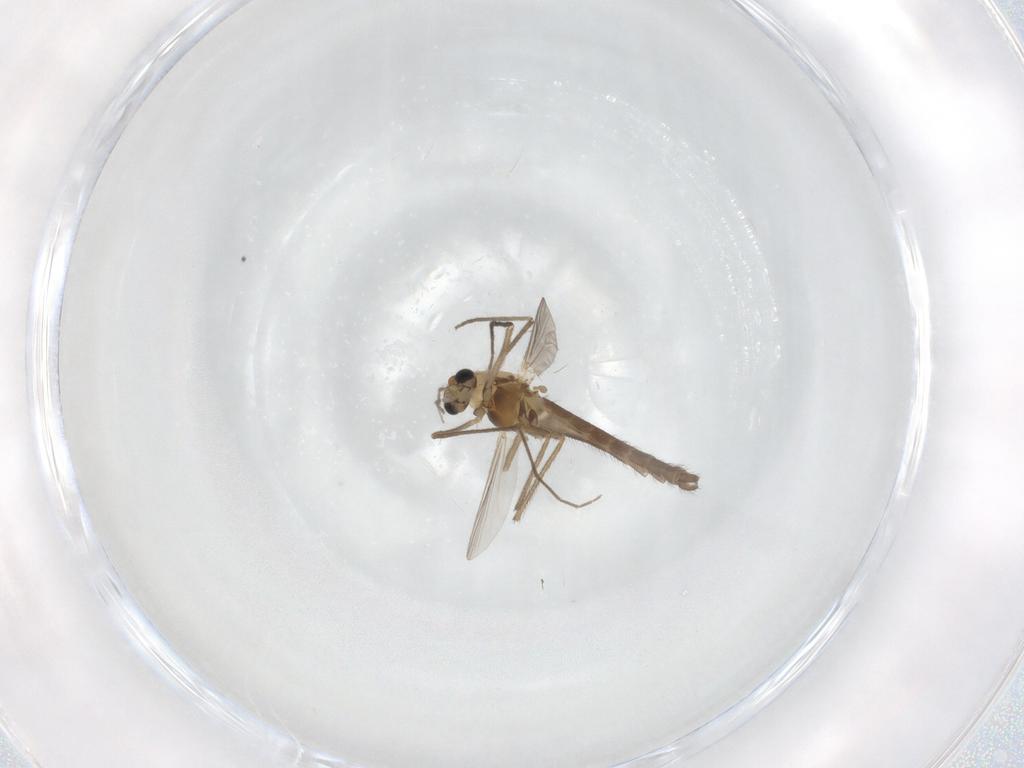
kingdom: Animalia
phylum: Arthropoda
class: Insecta
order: Diptera
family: Chironomidae
